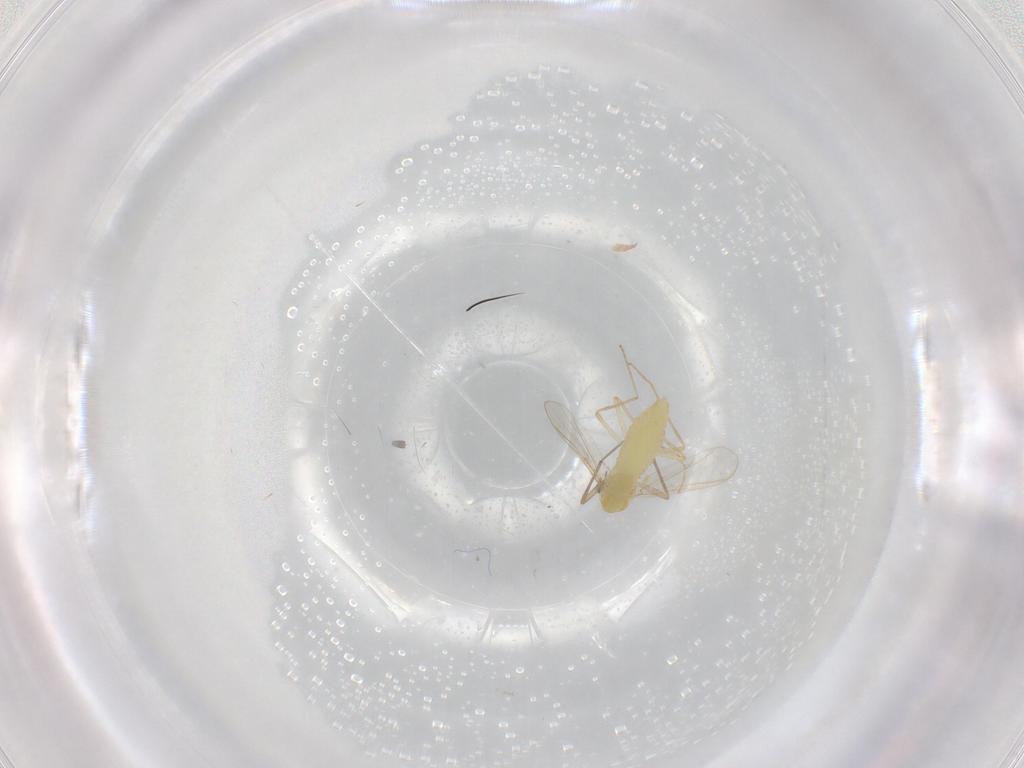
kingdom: Animalia
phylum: Arthropoda
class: Insecta
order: Diptera
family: Chironomidae
